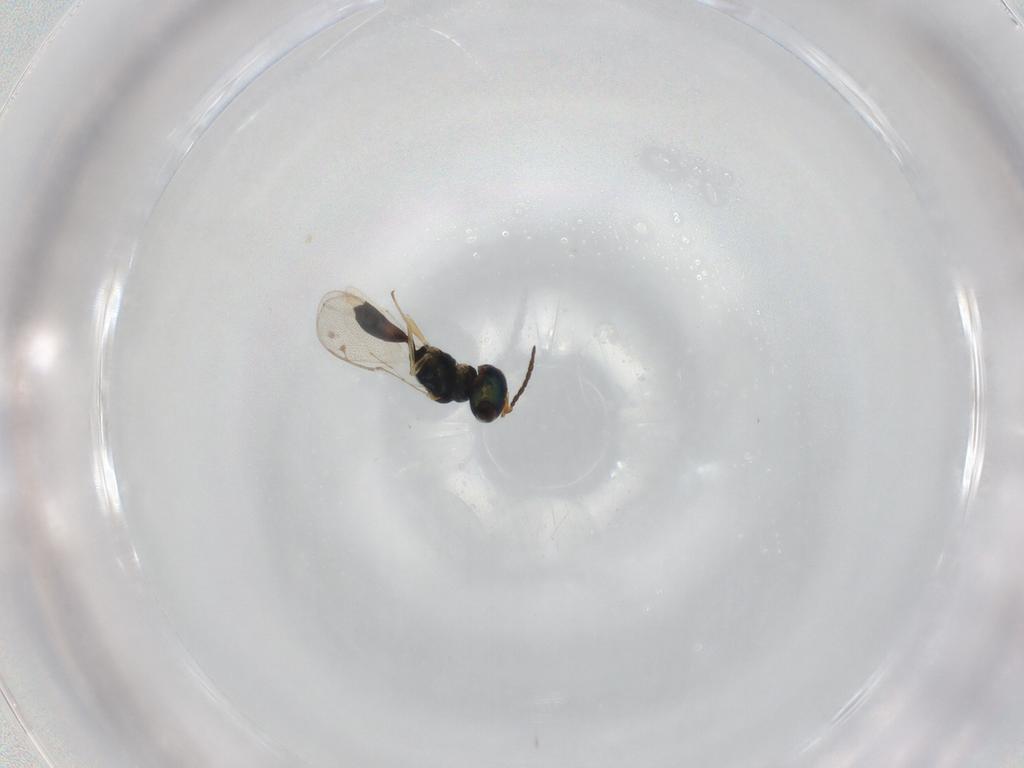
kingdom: Animalia
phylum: Arthropoda
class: Insecta
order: Hymenoptera
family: Pteromalidae
